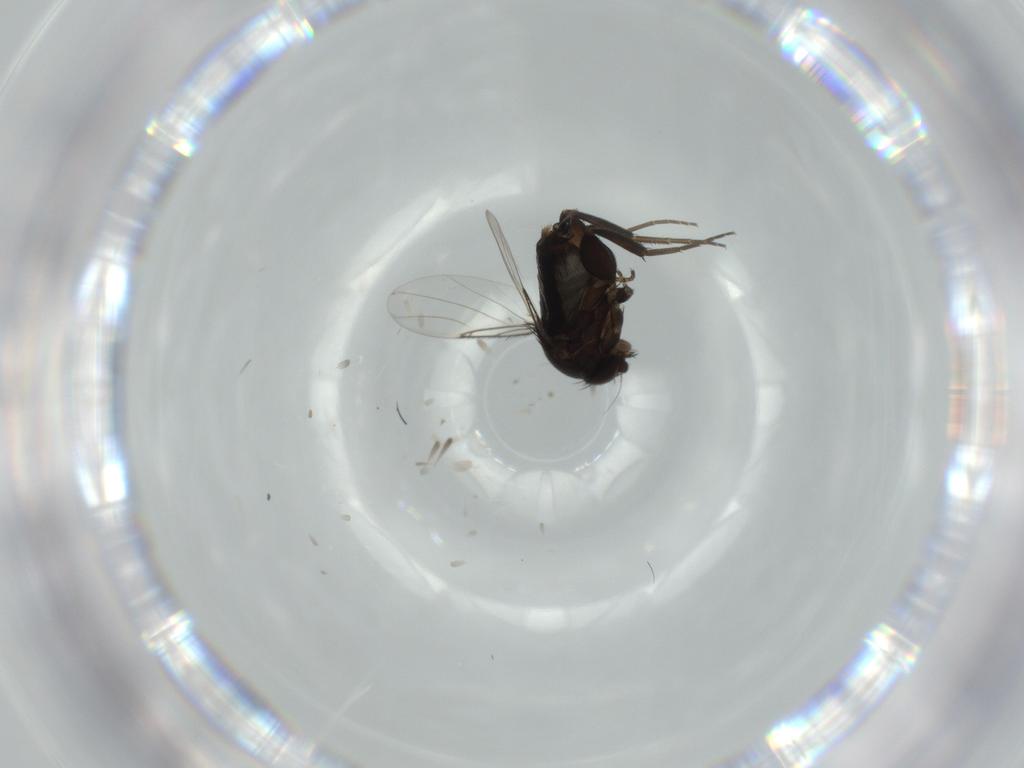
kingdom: Animalia
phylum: Arthropoda
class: Insecta
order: Diptera
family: Phoridae
